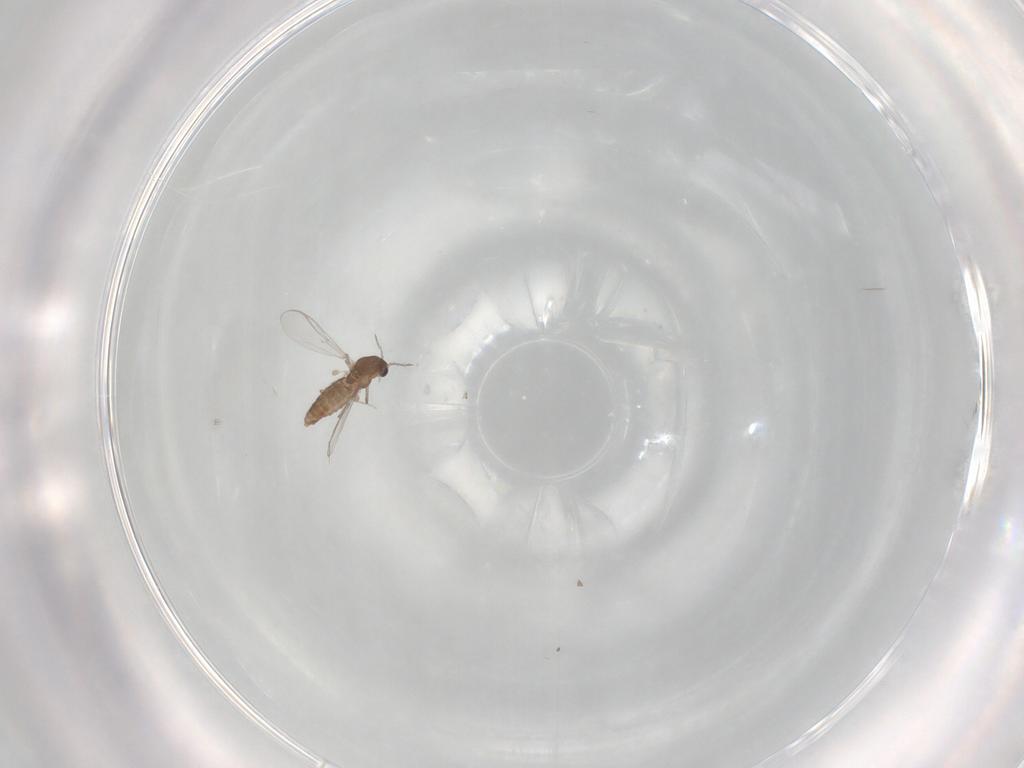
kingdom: Animalia
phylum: Arthropoda
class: Insecta
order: Diptera
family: Chironomidae
